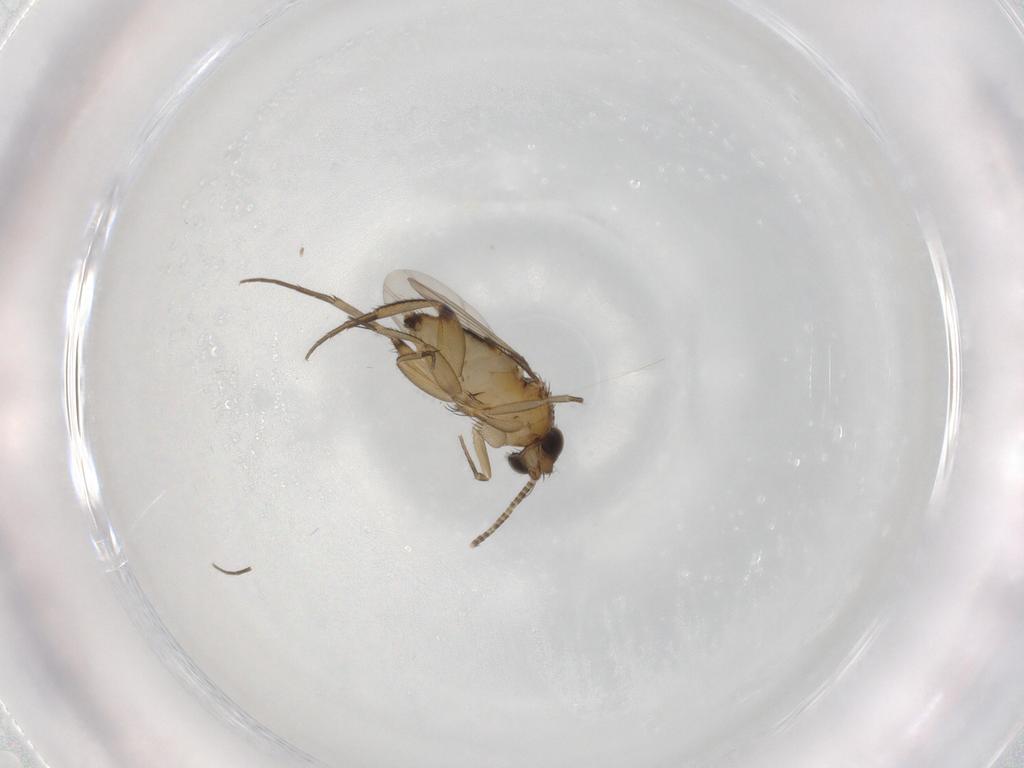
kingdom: Animalia
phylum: Arthropoda
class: Insecta
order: Diptera
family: Phoridae
